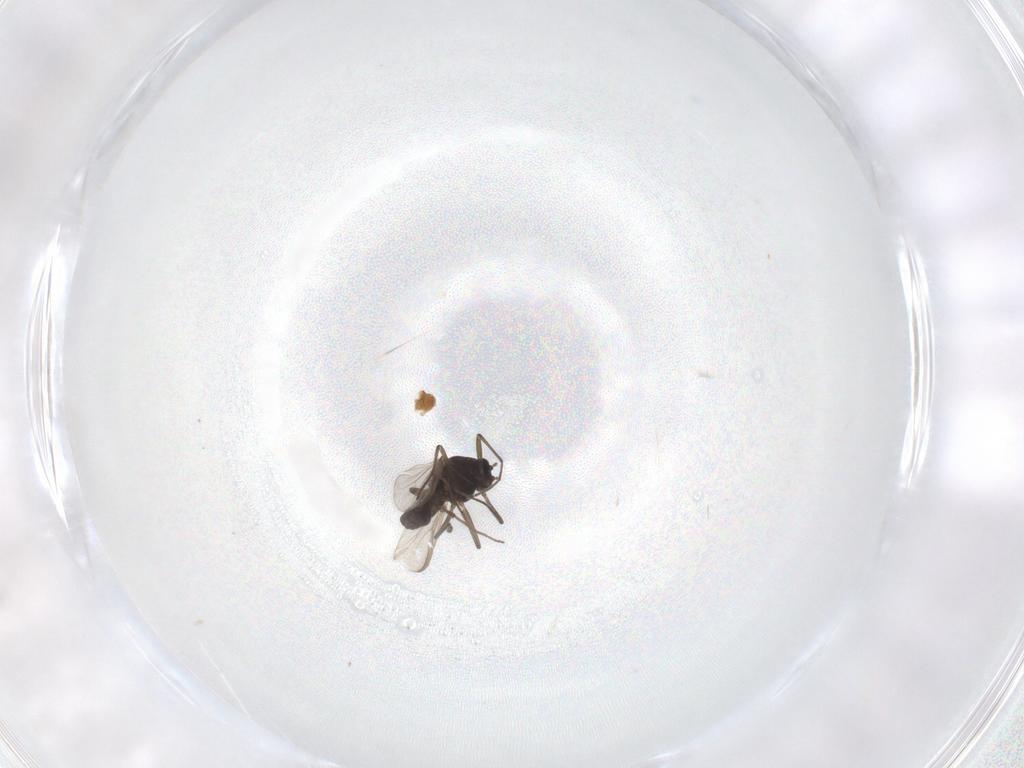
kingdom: Animalia
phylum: Arthropoda
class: Insecta
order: Diptera
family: Chironomidae
